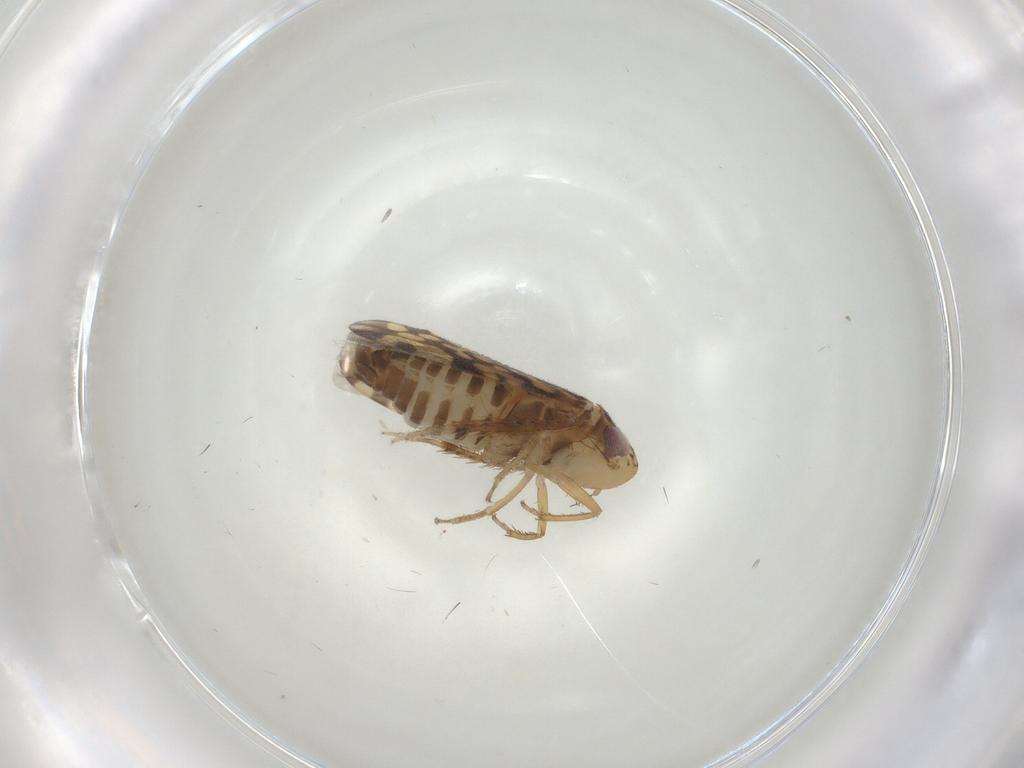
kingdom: Animalia
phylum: Arthropoda
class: Insecta
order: Hemiptera
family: Cicadellidae
